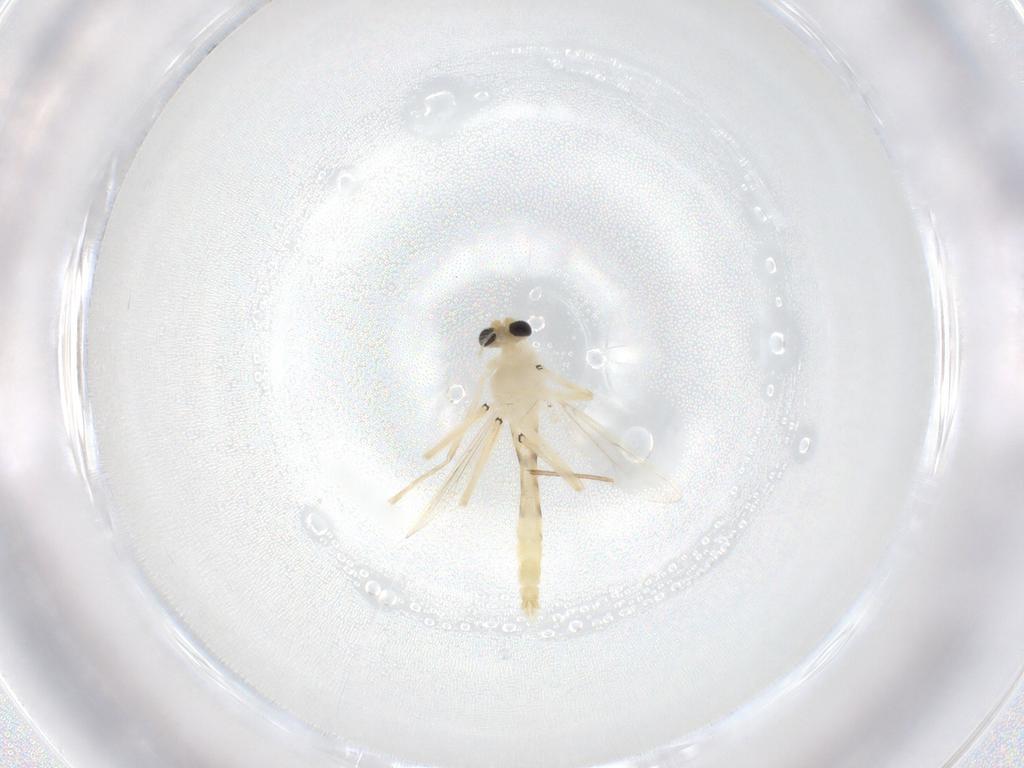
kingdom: Animalia
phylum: Arthropoda
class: Insecta
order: Diptera
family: Chironomidae
